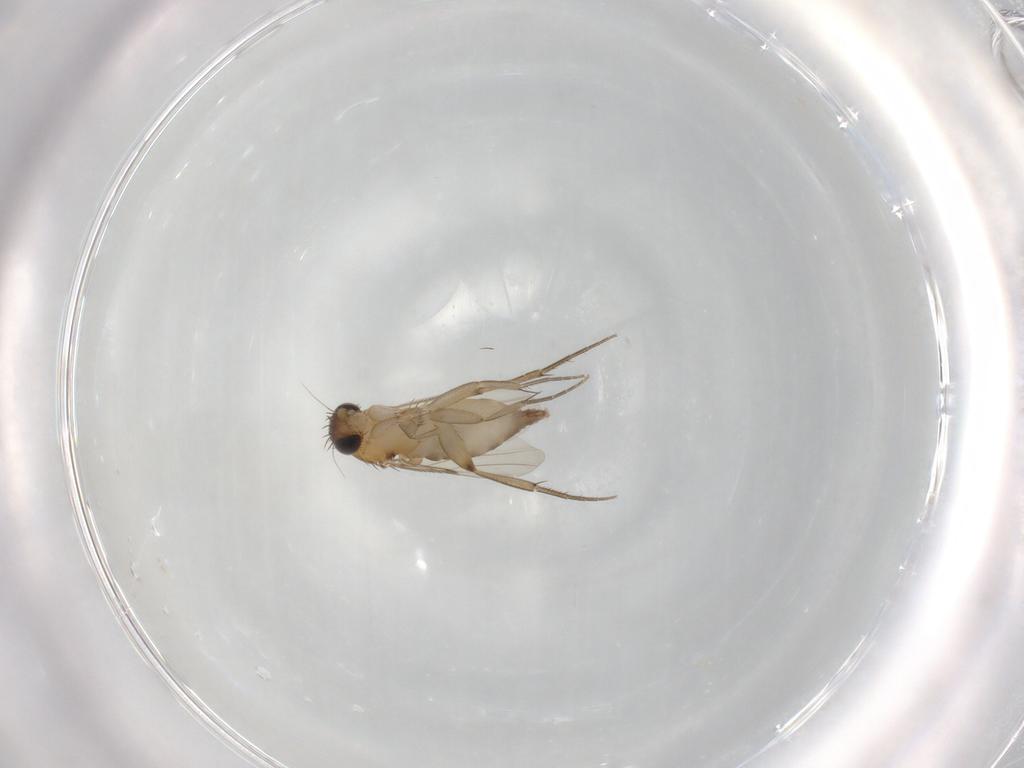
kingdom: Animalia
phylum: Arthropoda
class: Insecta
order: Diptera
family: Phoridae
